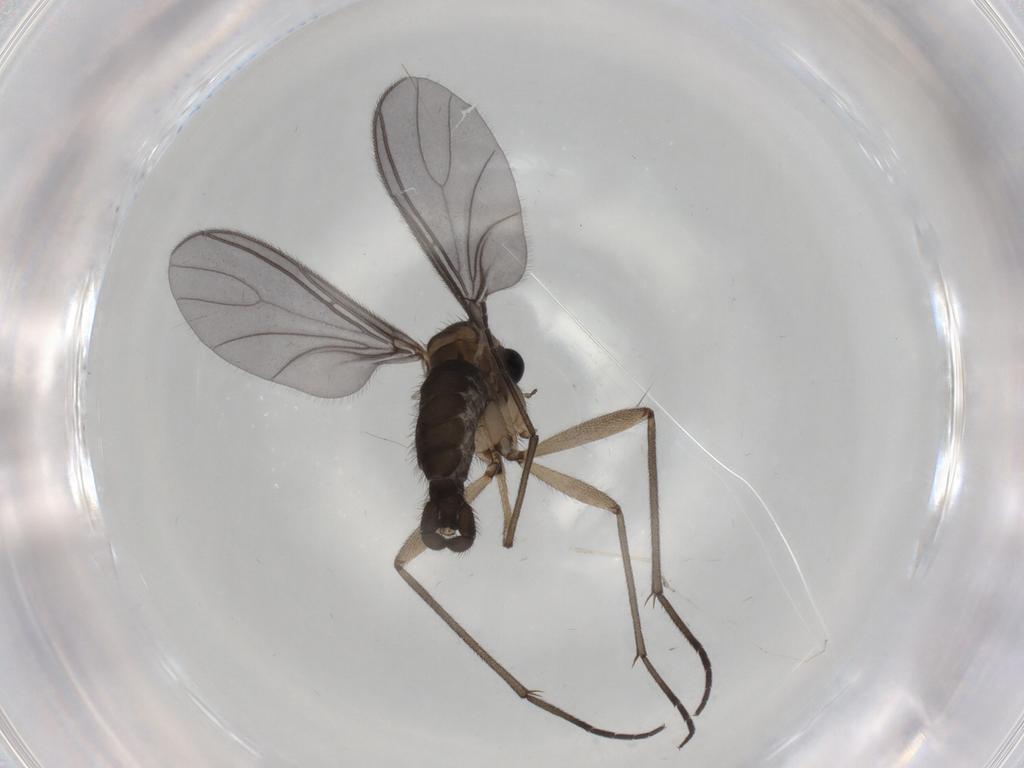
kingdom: Animalia
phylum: Arthropoda
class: Insecta
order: Diptera
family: Sciaridae
